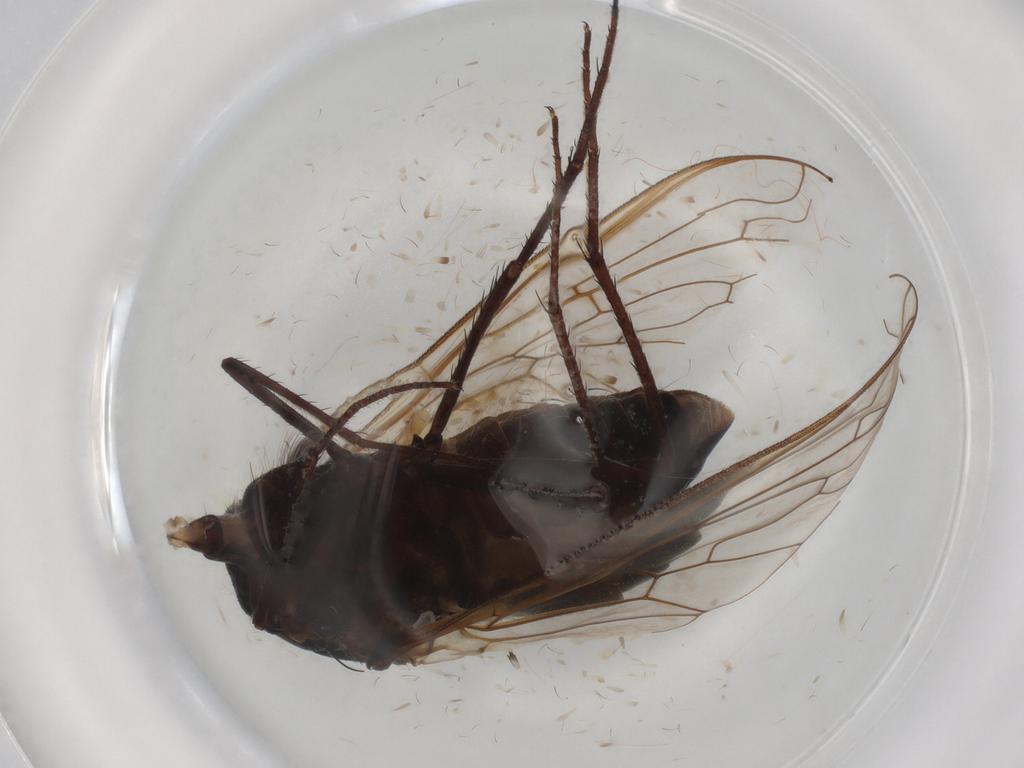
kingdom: Animalia
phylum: Arthropoda
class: Insecta
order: Diptera
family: Bombyliidae
